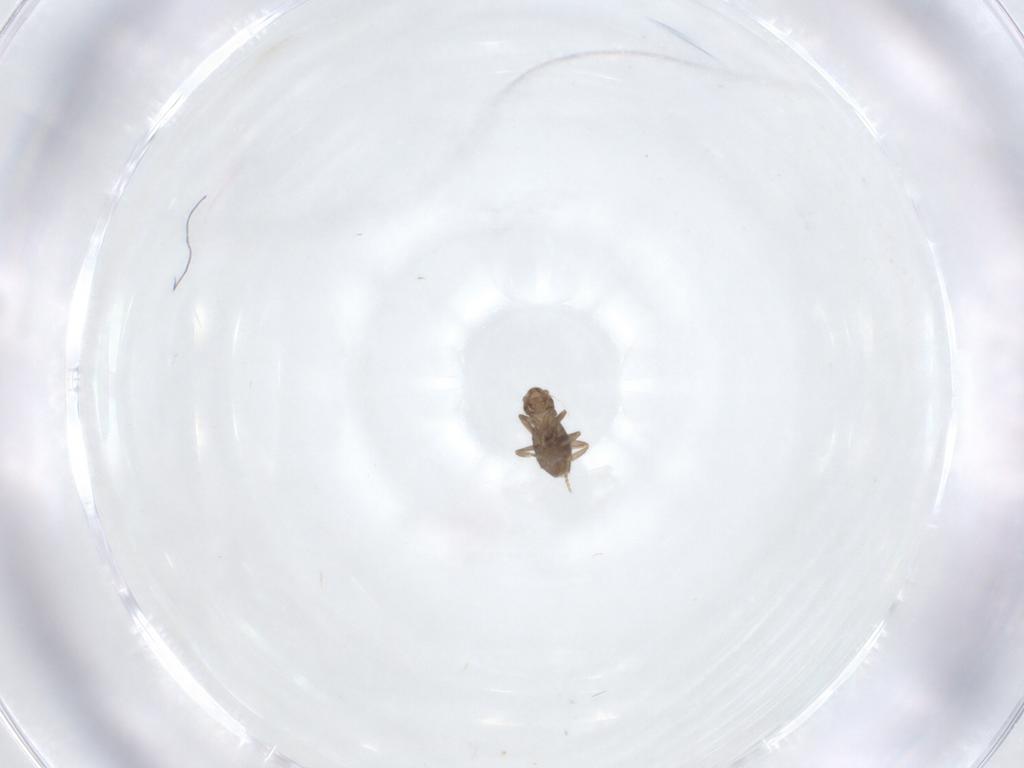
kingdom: Animalia
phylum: Arthropoda
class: Insecta
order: Diptera
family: Phoridae
